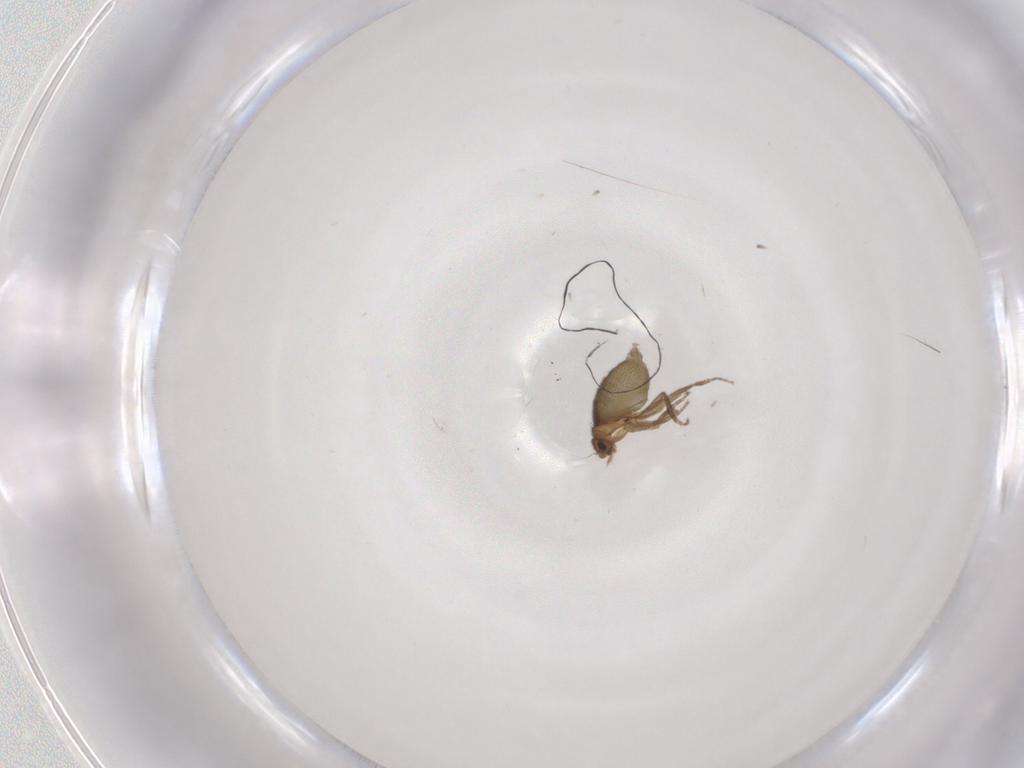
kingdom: Animalia
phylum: Arthropoda
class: Insecta
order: Diptera
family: Phoridae
